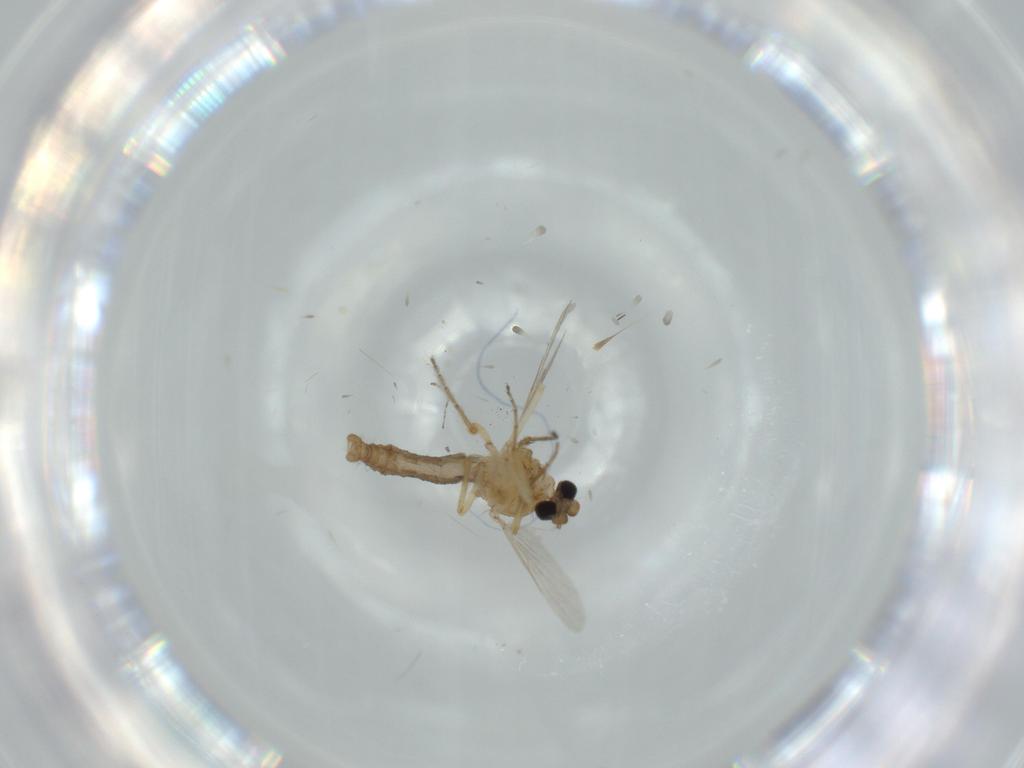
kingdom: Animalia
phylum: Arthropoda
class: Insecta
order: Diptera
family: Ceratopogonidae
